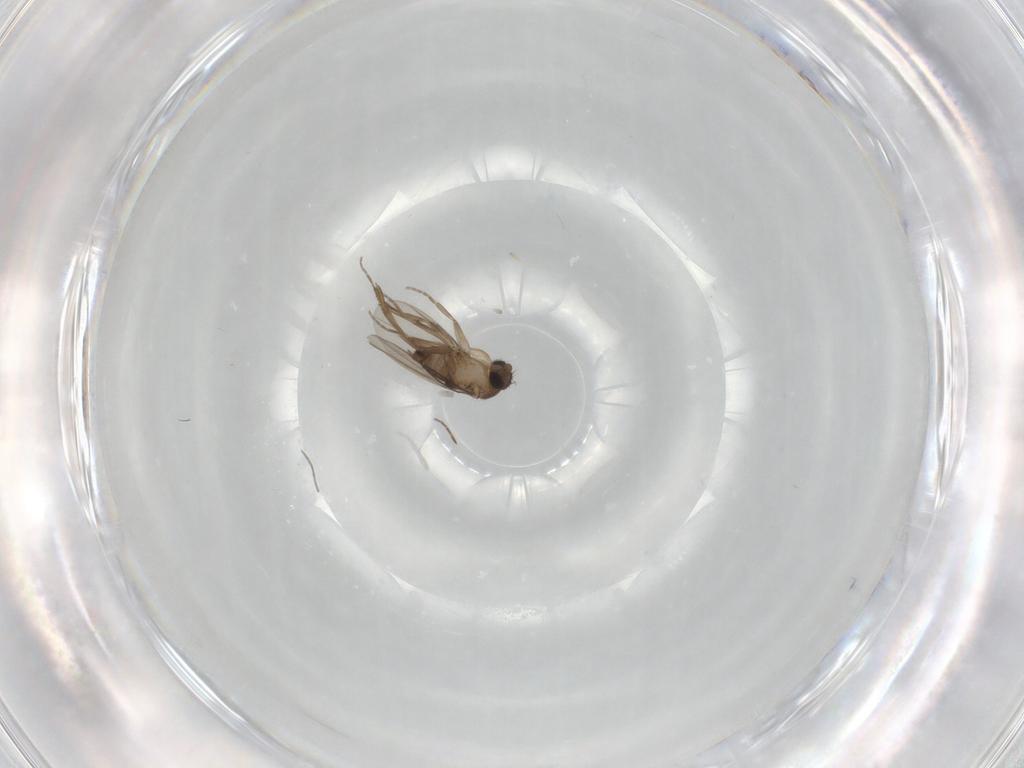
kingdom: Animalia
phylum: Arthropoda
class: Insecta
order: Diptera
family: Phoridae
